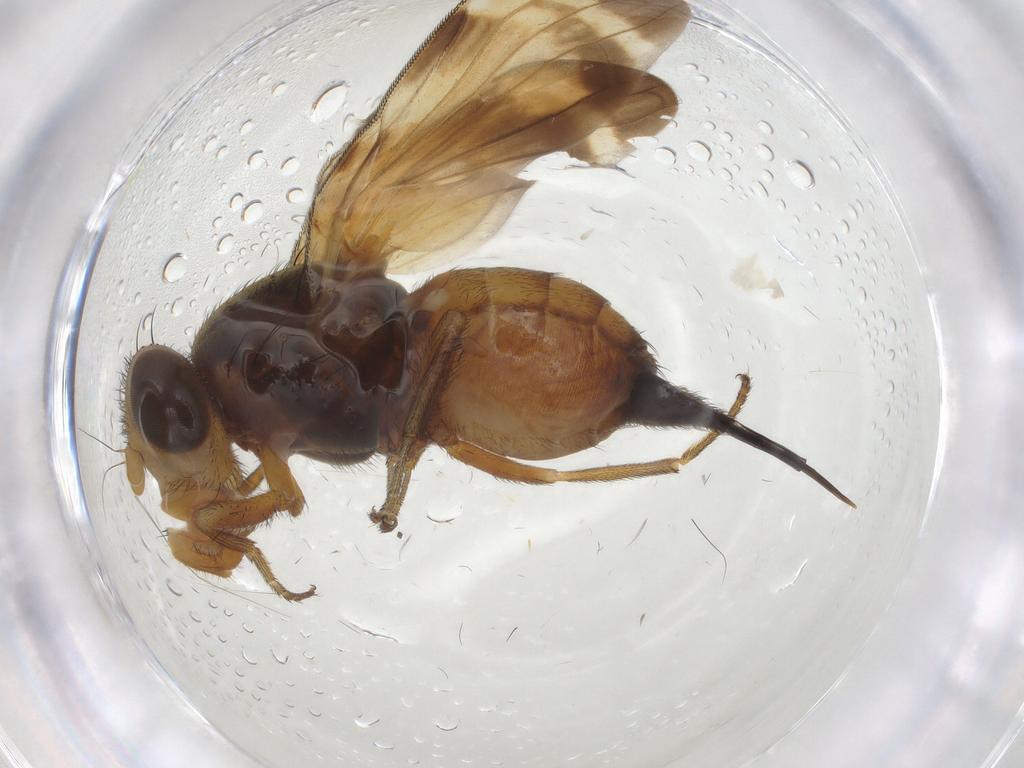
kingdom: Animalia
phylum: Arthropoda
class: Insecta
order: Diptera
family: Ulidiidae
